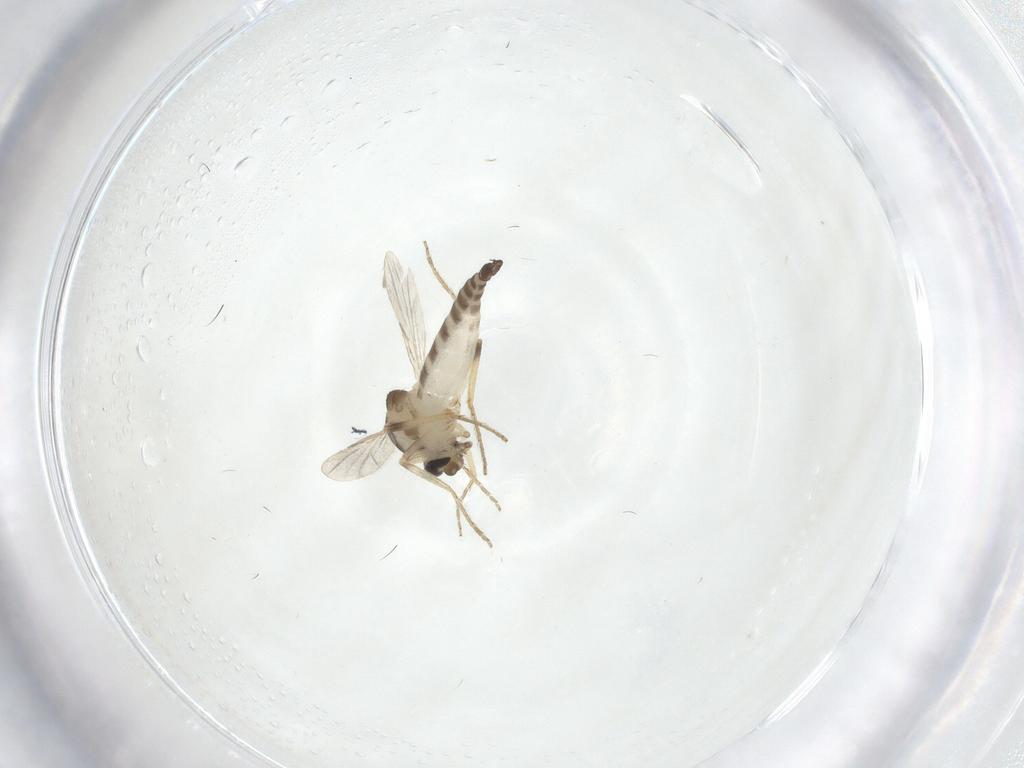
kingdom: Animalia
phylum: Arthropoda
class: Insecta
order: Diptera
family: Ceratopogonidae
